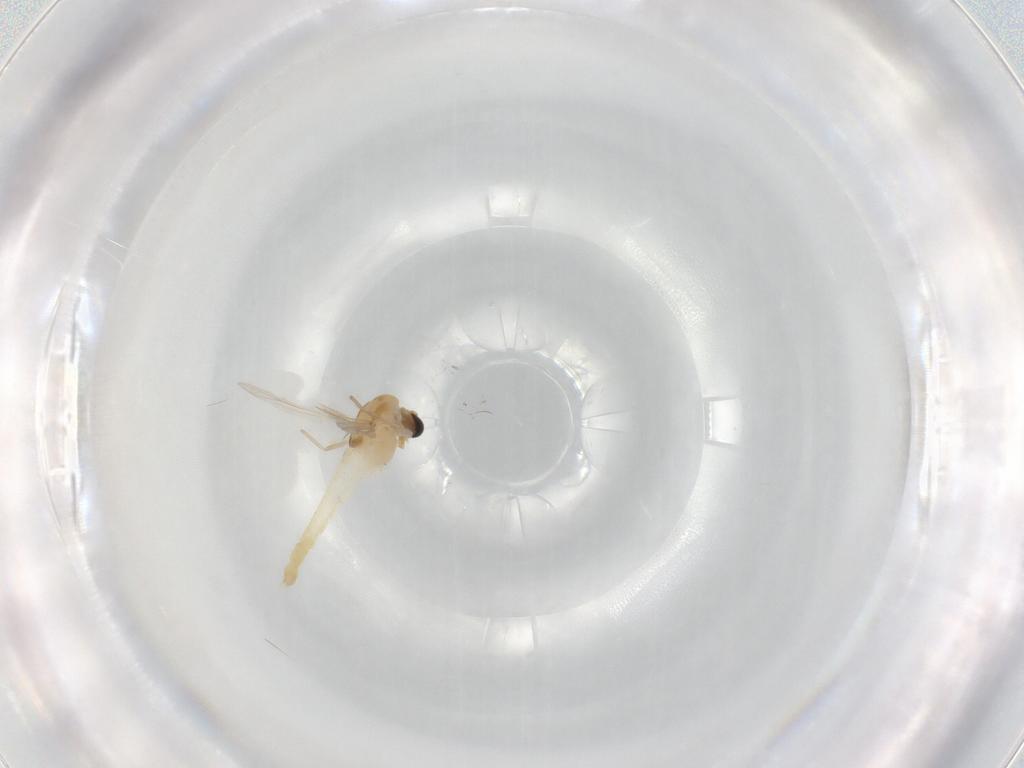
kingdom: Animalia
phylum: Arthropoda
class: Insecta
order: Diptera
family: Chironomidae
